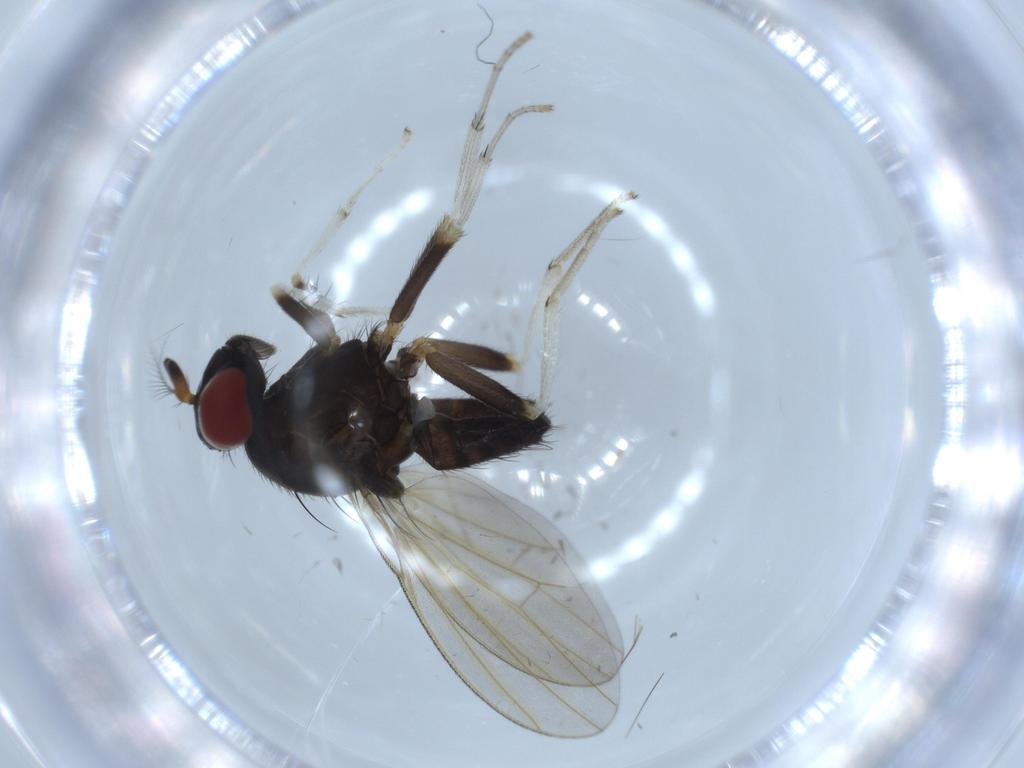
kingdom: Animalia
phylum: Arthropoda
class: Insecta
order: Diptera
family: Lauxaniidae
